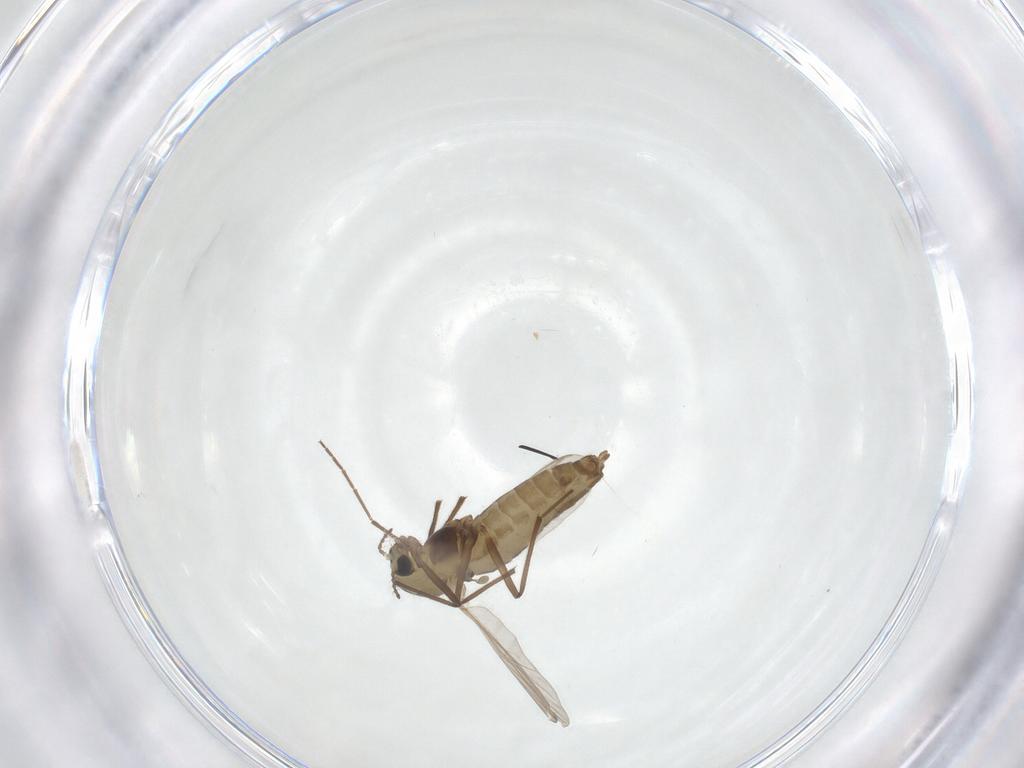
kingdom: Animalia
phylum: Arthropoda
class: Insecta
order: Diptera
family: Chironomidae
